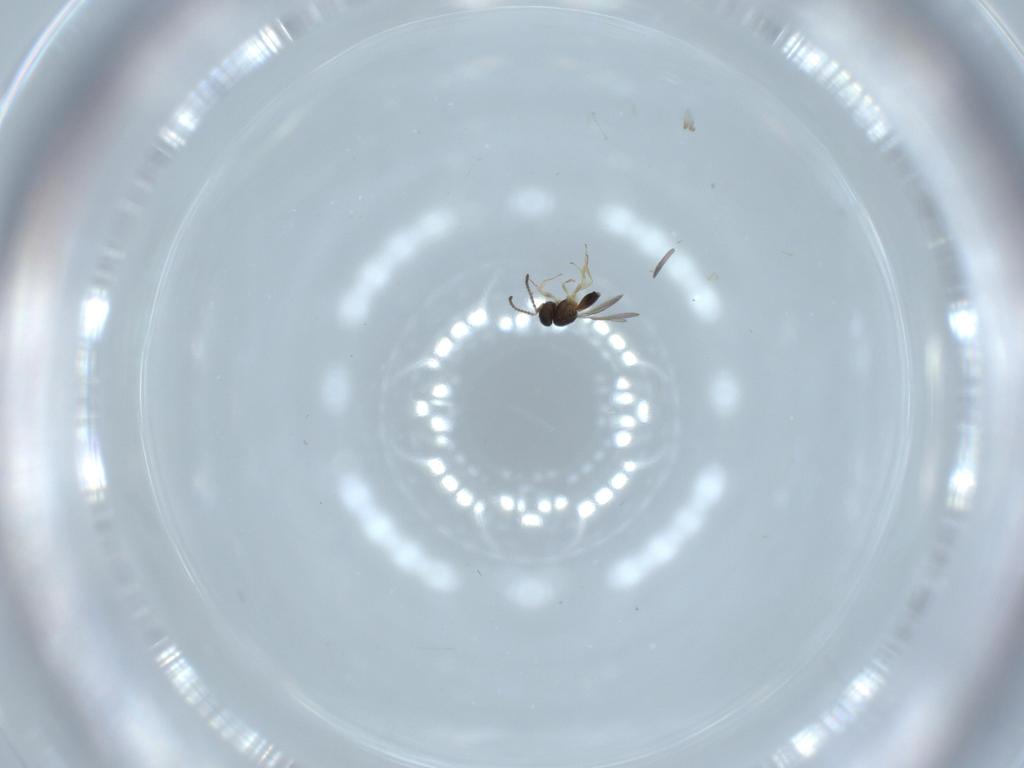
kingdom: Animalia
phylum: Arthropoda
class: Insecta
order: Hymenoptera
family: Bethylidae
